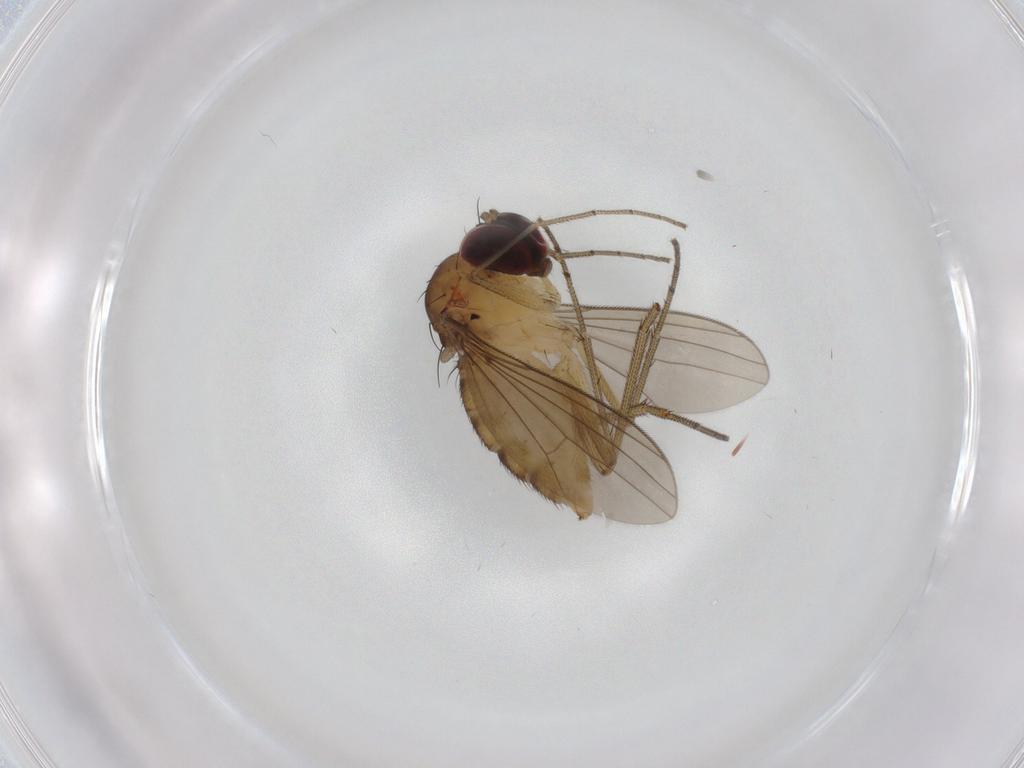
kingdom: Animalia
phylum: Arthropoda
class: Insecta
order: Diptera
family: Dolichopodidae
